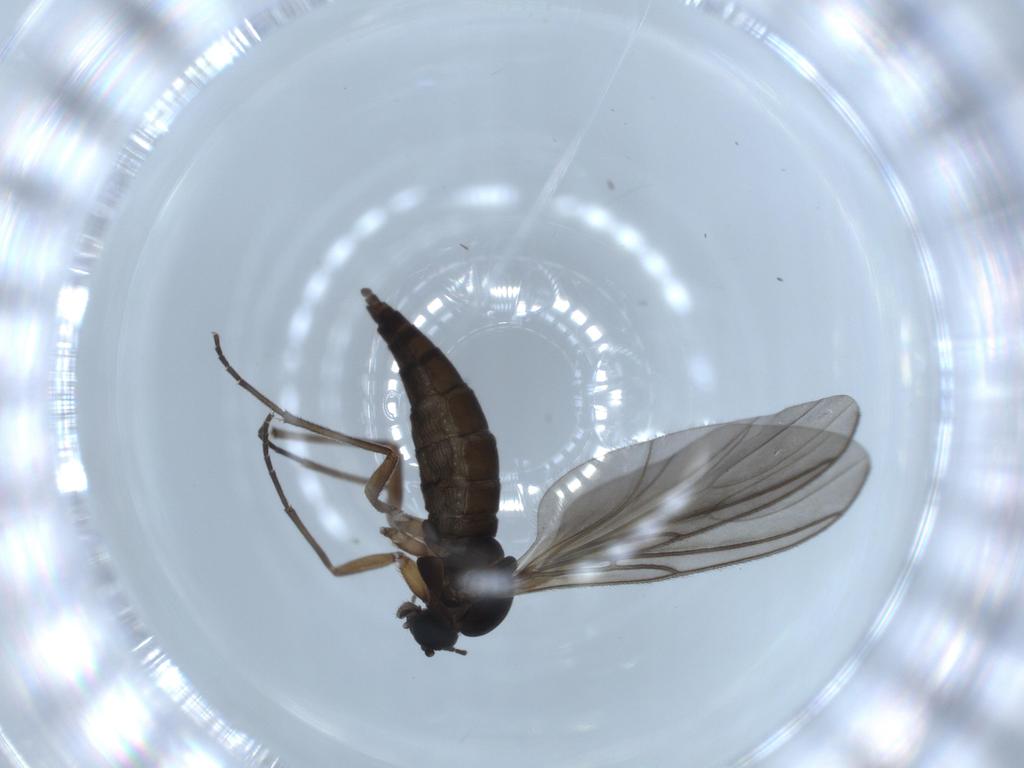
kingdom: Animalia
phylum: Arthropoda
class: Insecta
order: Diptera
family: Sciaridae
